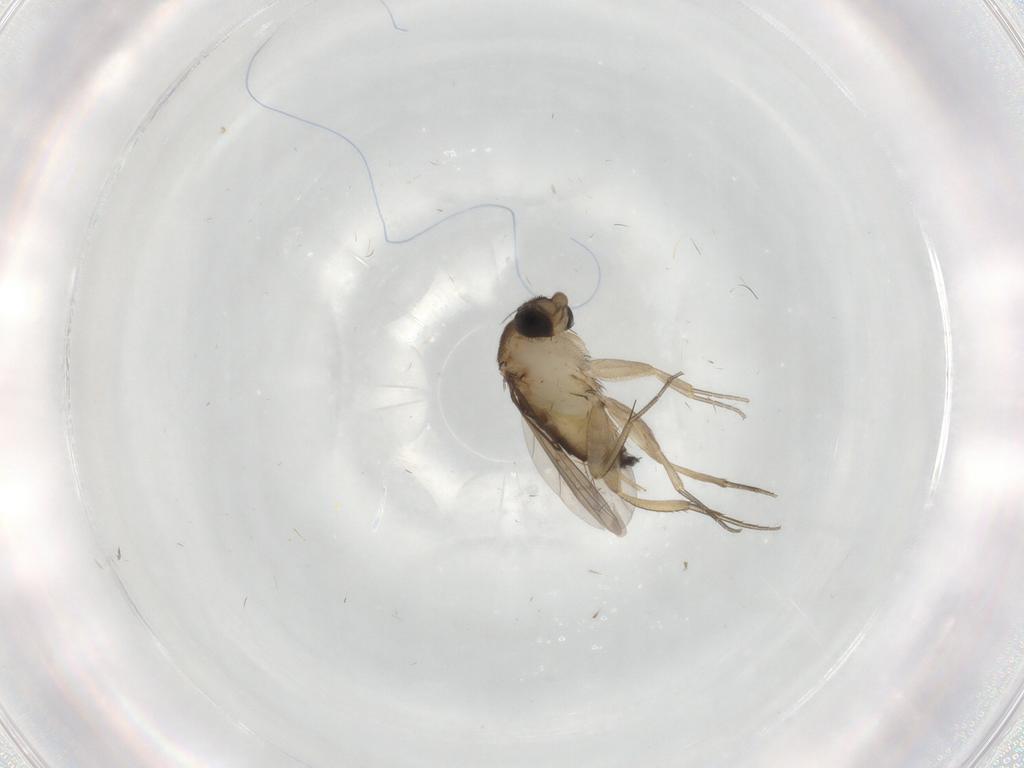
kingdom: Animalia
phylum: Arthropoda
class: Insecta
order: Diptera
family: Phoridae
